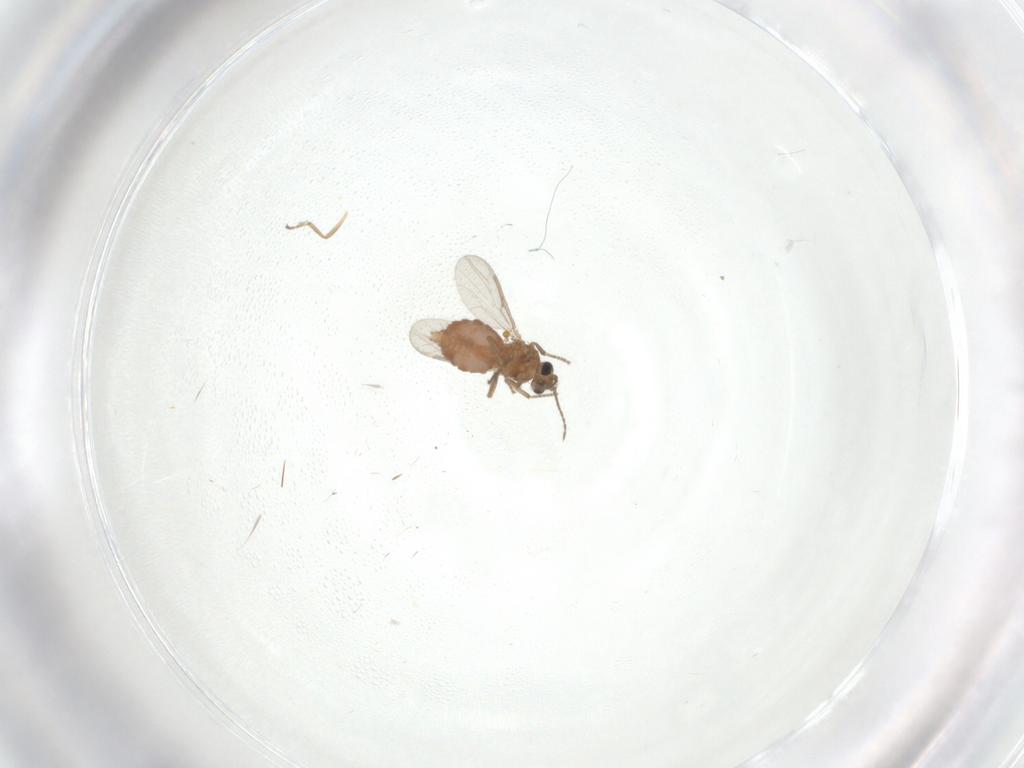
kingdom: Animalia
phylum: Arthropoda
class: Insecta
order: Diptera
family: Ceratopogonidae
